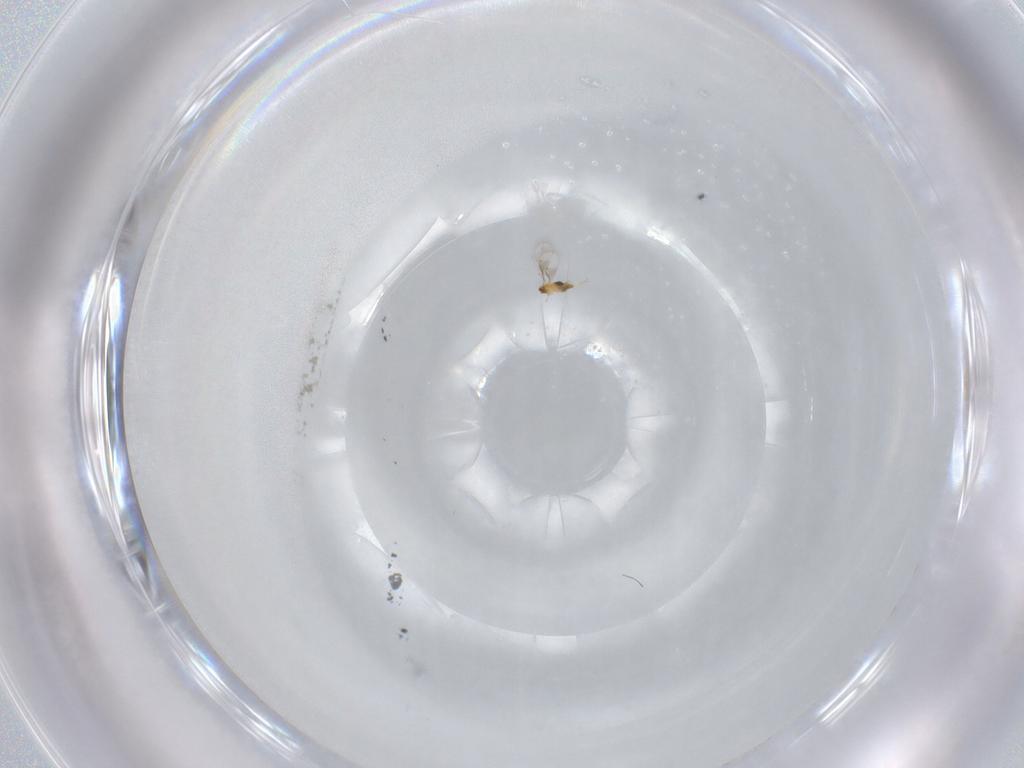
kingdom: Animalia
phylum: Arthropoda
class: Insecta
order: Hymenoptera
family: Trichogrammatidae
